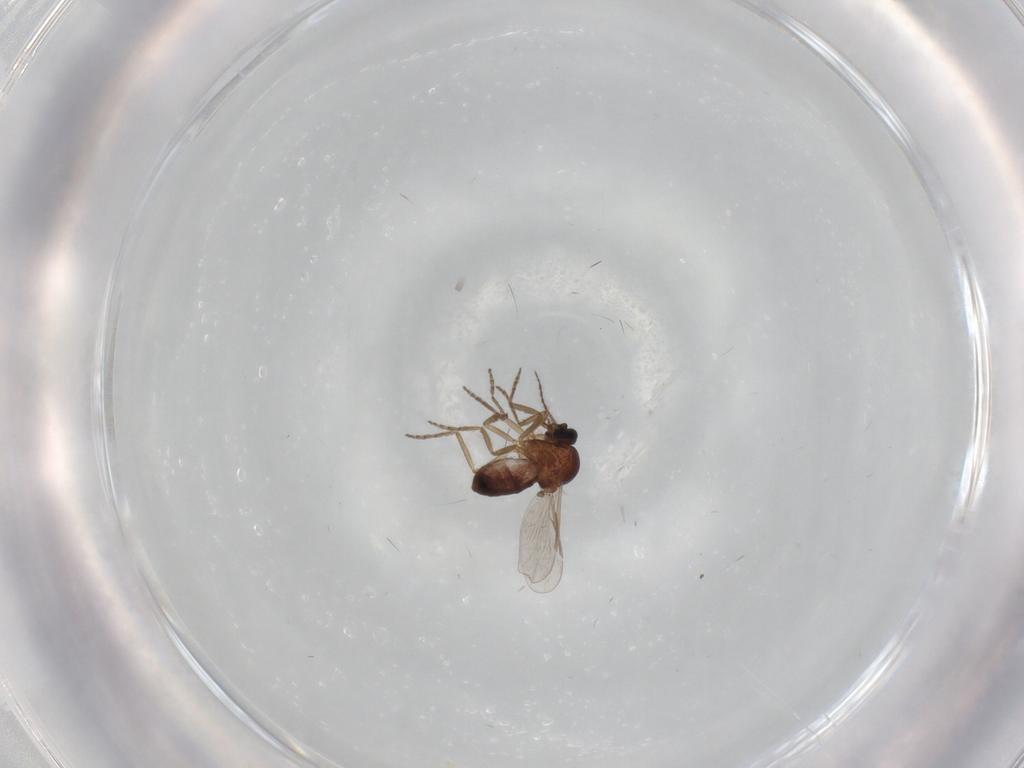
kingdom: Animalia
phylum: Arthropoda
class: Insecta
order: Diptera
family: Ceratopogonidae
